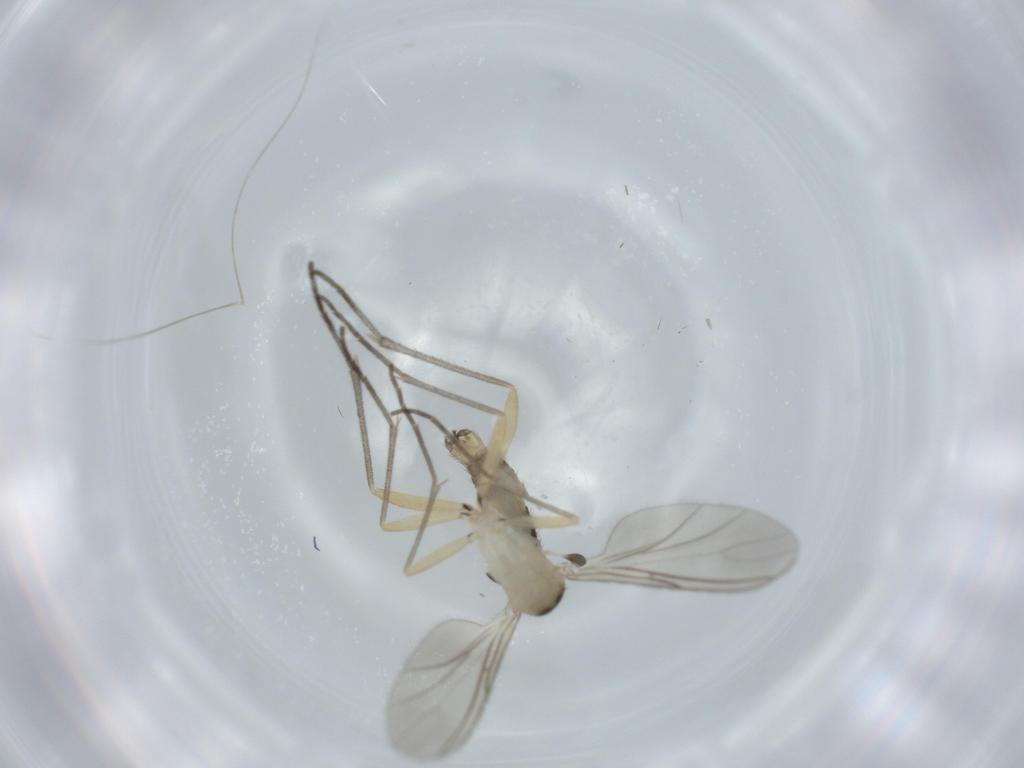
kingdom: Animalia
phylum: Arthropoda
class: Insecta
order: Diptera
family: Sciaridae
